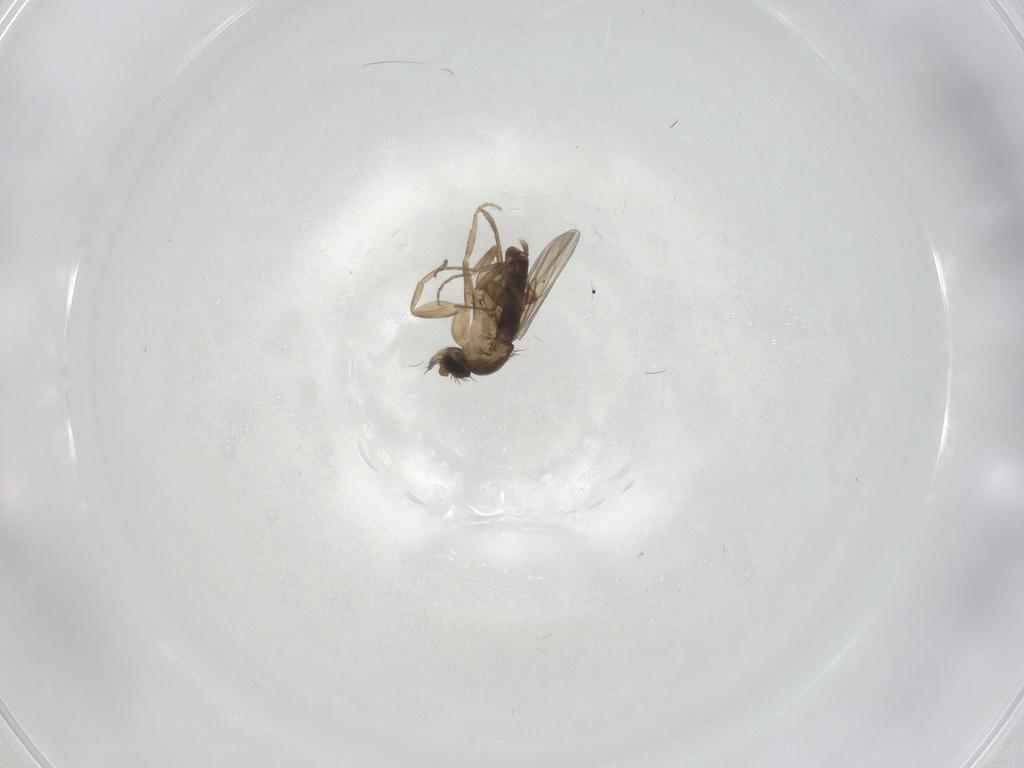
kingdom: Animalia
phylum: Arthropoda
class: Insecta
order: Diptera
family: Phoridae
